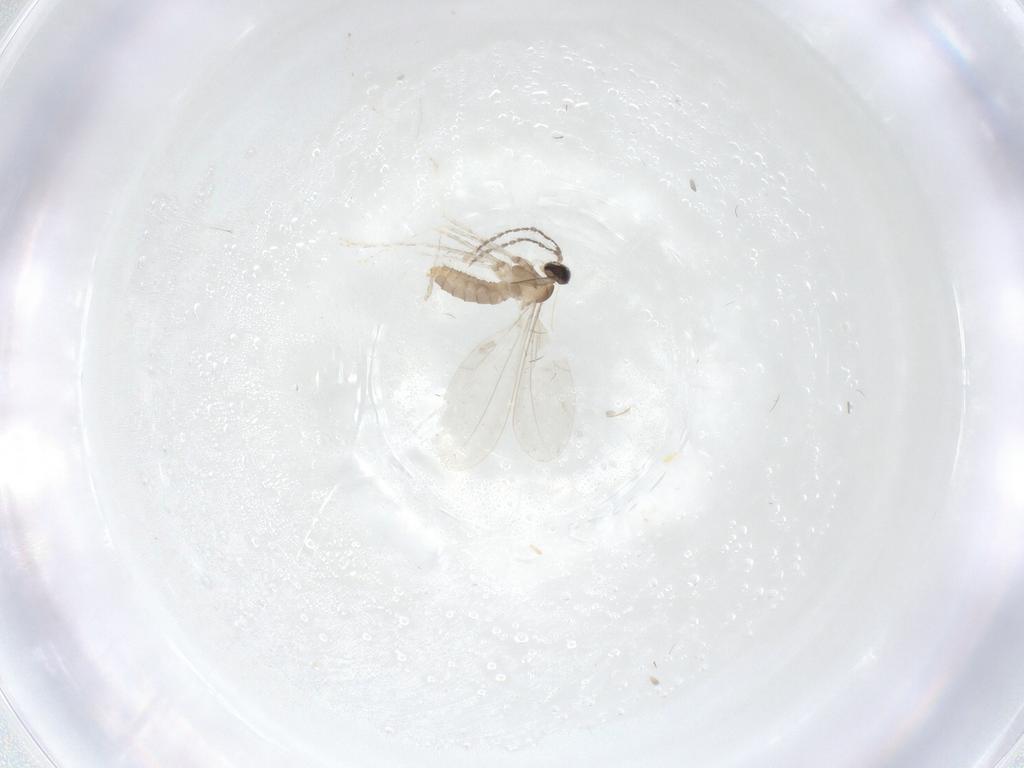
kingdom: Animalia
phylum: Arthropoda
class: Insecta
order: Diptera
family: Cecidomyiidae
